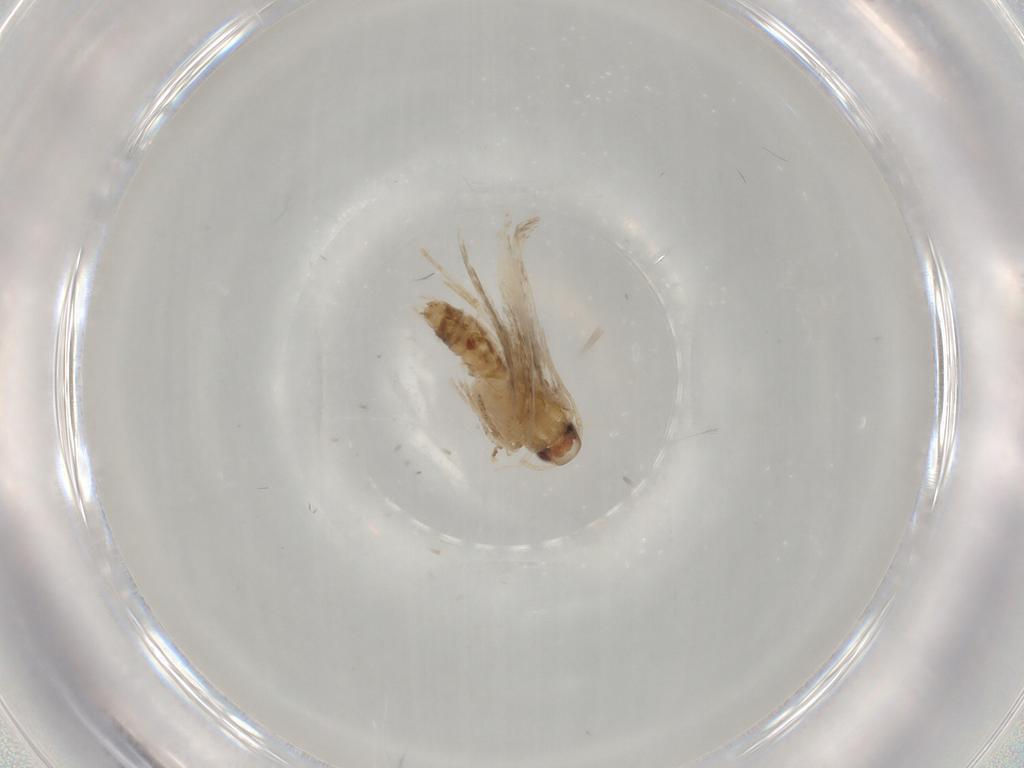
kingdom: Animalia
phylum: Arthropoda
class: Insecta
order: Lepidoptera
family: Gelechiidae
